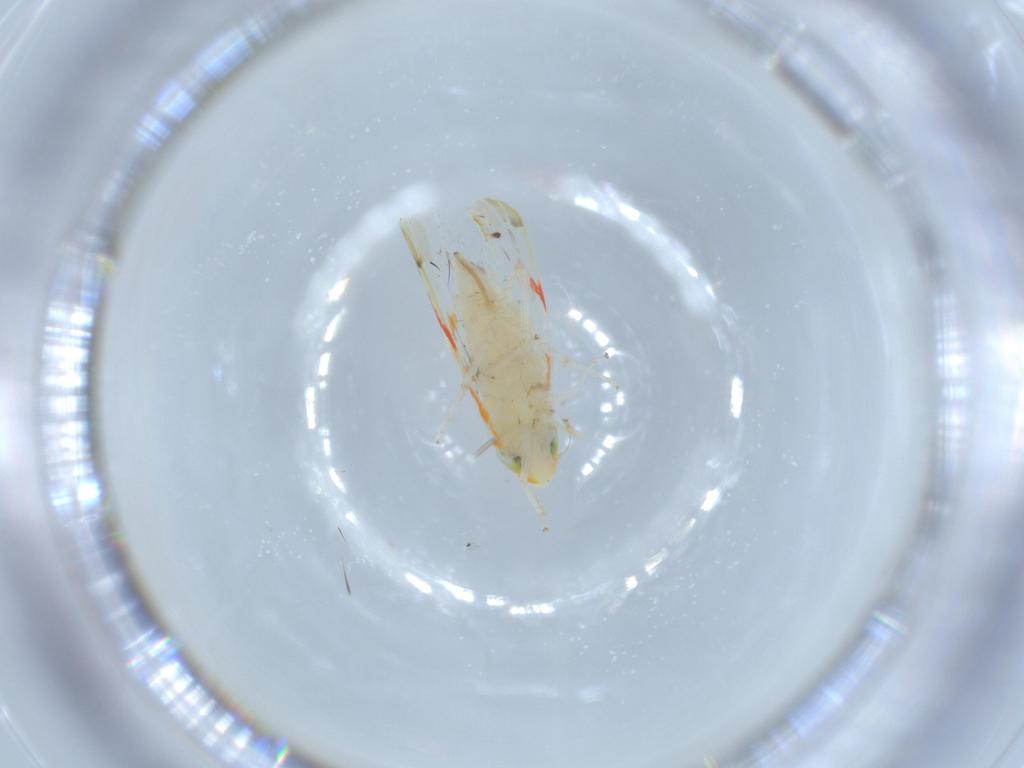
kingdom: Animalia
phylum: Arthropoda
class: Insecta
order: Hemiptera
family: Cicadellidae
